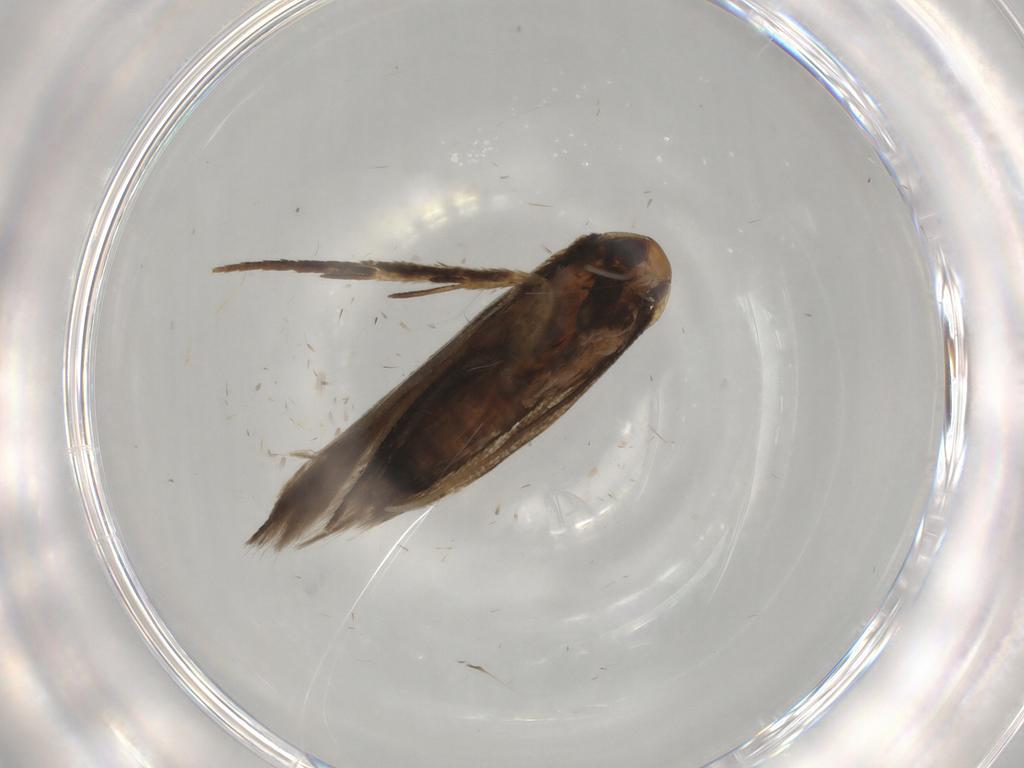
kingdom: Animalia
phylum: Arthropoda
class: Insecta
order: Lepidoptera
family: Cosmopterigidae
